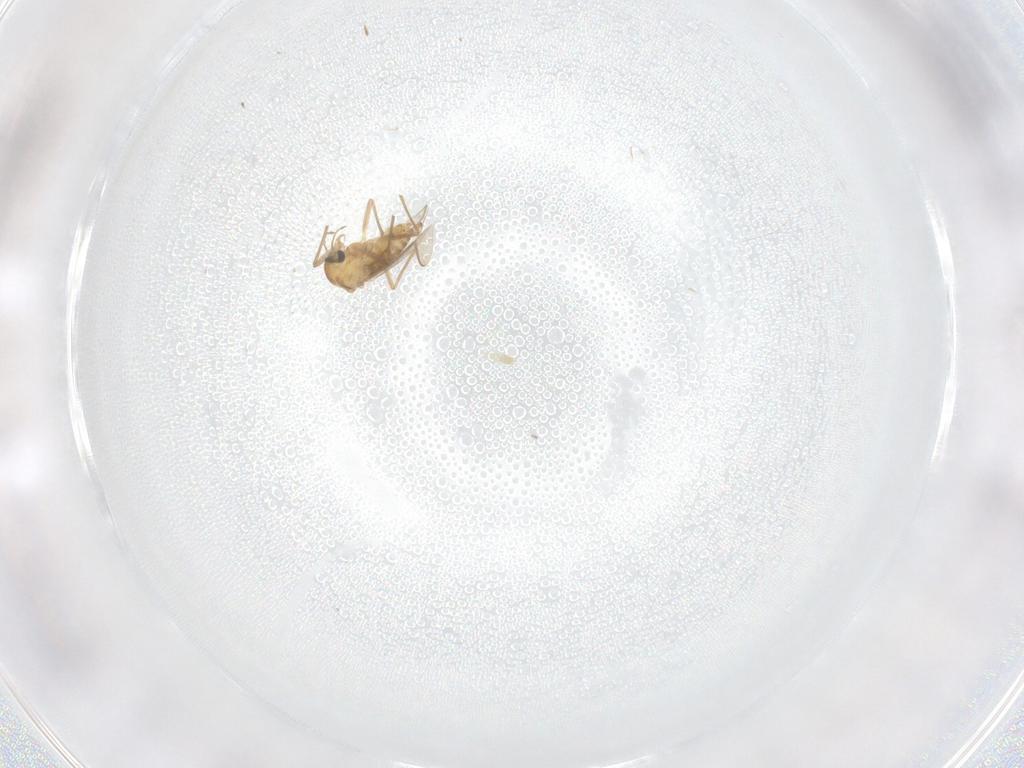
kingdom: Animalia
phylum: Arthropoda
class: Insecta
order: Diptera
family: Chironomidae
